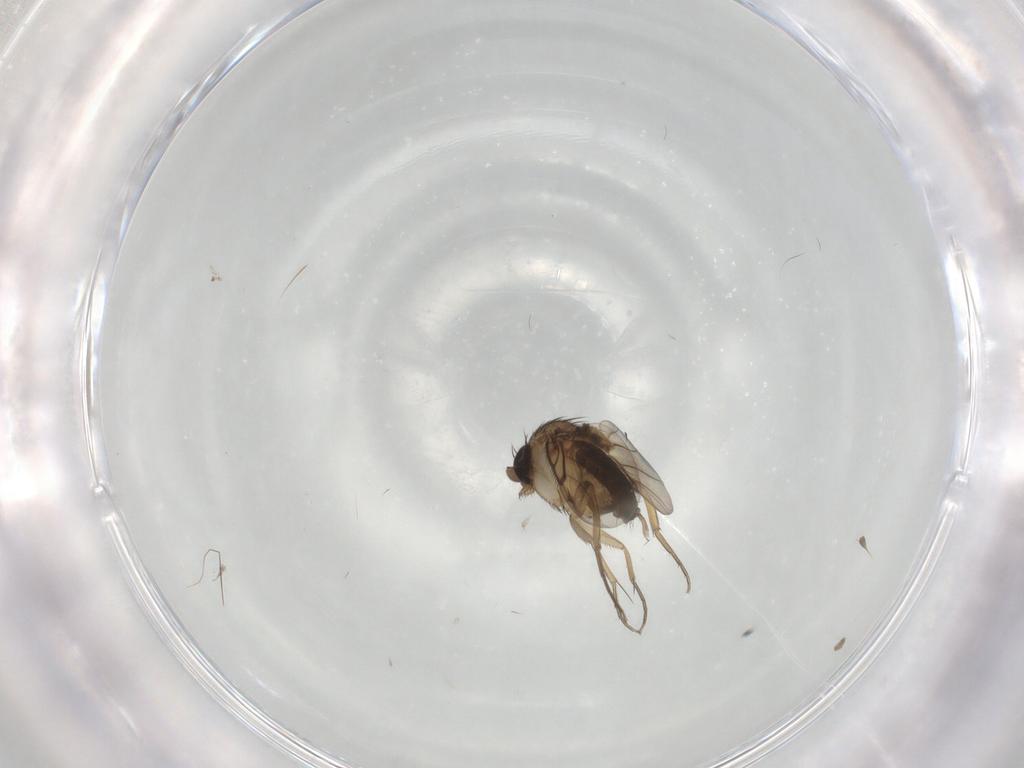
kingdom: Animalia
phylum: Arthropoda
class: Insecta
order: Diptera
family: Phoridae
